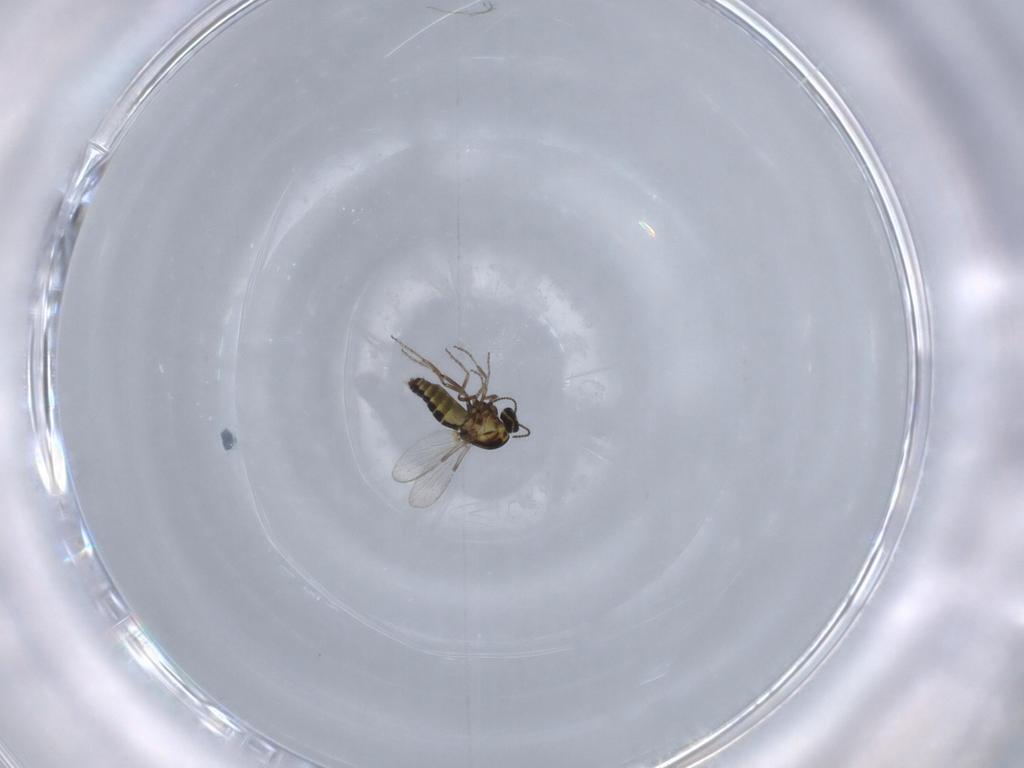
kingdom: Animalia
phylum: Arthropoda
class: Insecta
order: Diptera
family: Ceratopogonidae
